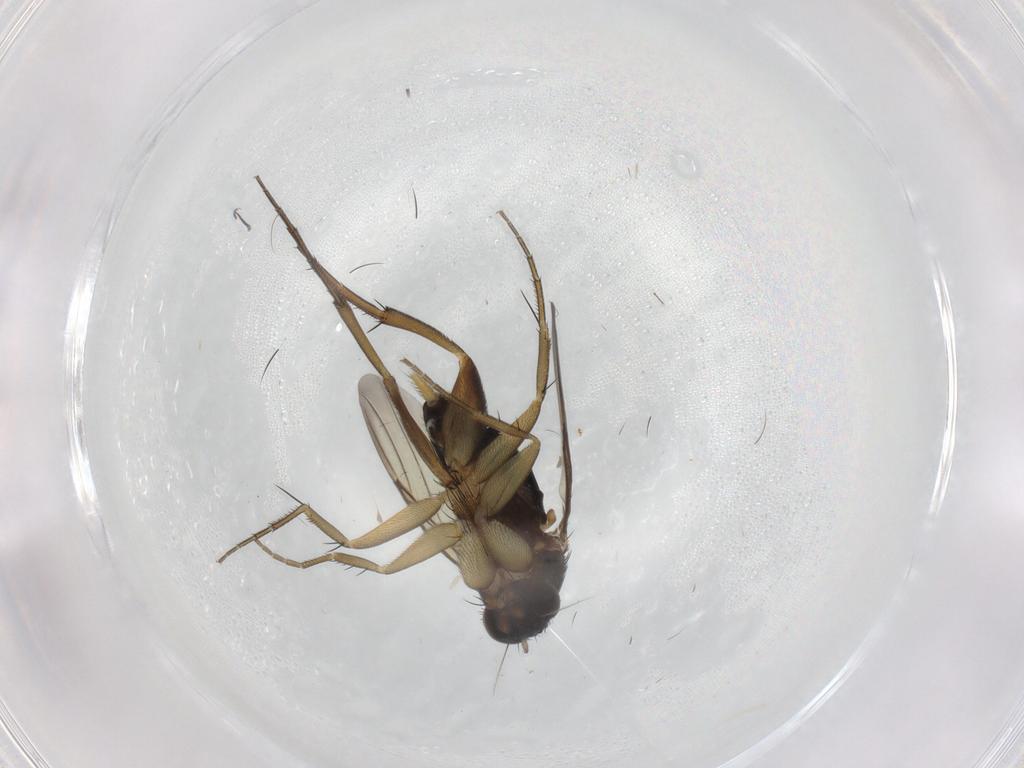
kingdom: Animalia
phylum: Arthropoda
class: Insecta
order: Diptera
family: Phoridae
